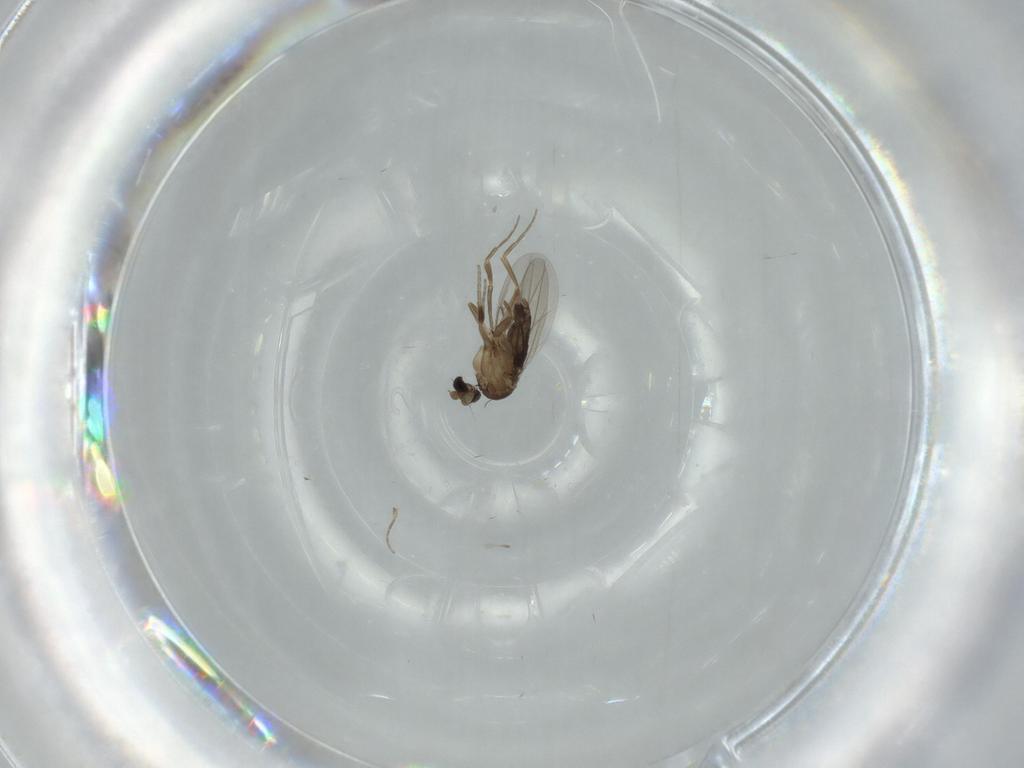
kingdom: Animalia
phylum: Arthropoda
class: Insecta
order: Diptera
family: Phoridae
